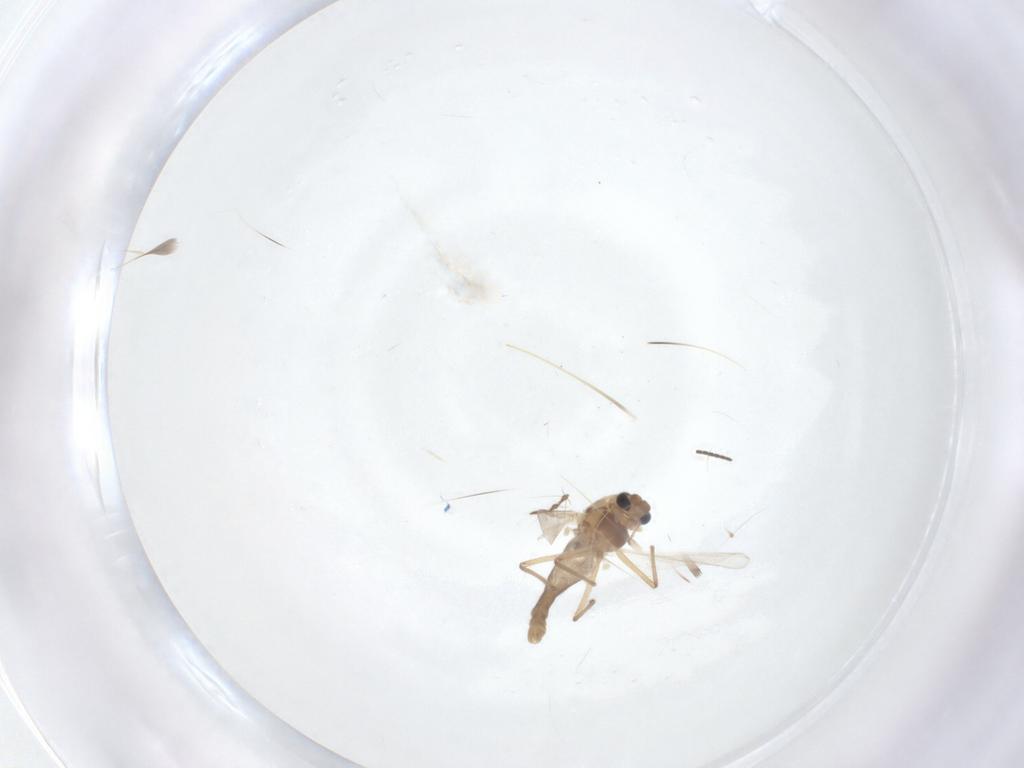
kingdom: Animalia
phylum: Arthropoda
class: Insecta
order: Diptera
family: Chironomidae
